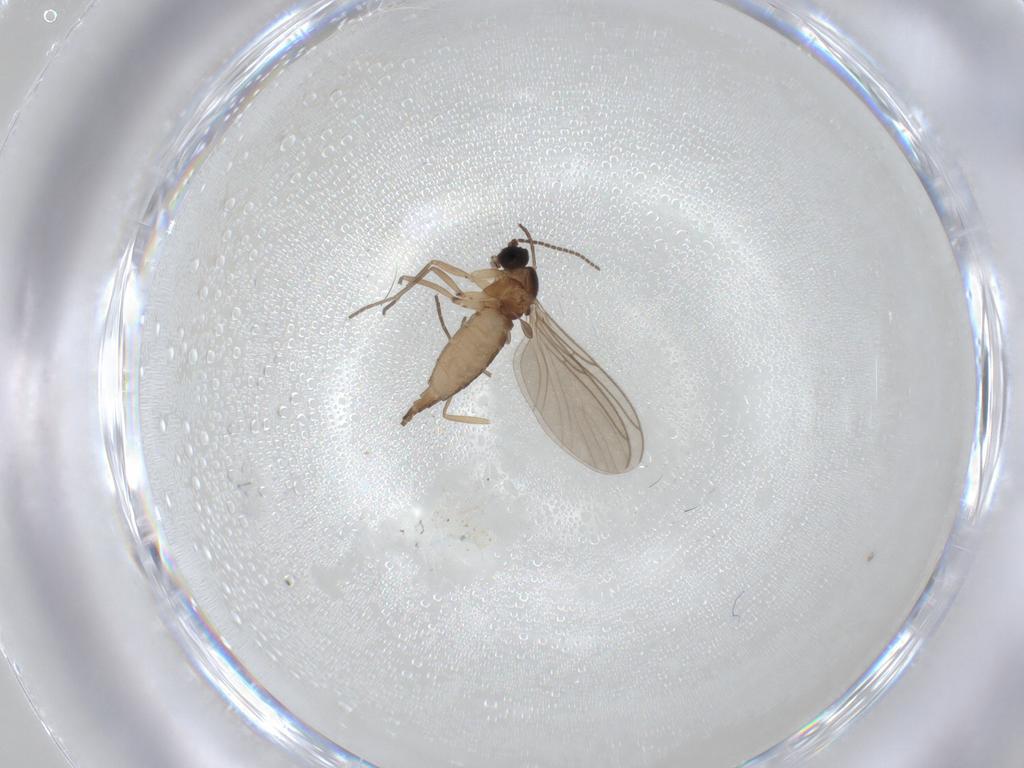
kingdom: Animalia
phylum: Arthropoda
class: Insecta
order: Diptera
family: Sciaridae
